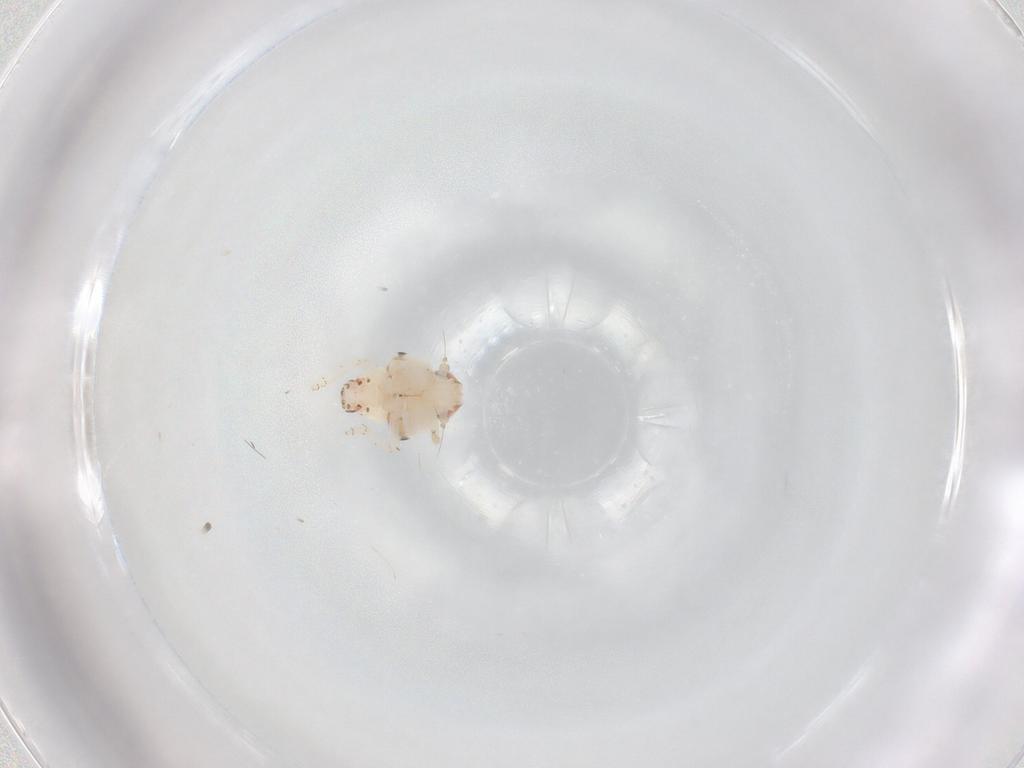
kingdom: Animalia
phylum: Arthropoda
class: Insecta
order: Hemiptera
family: Nogodinidae
